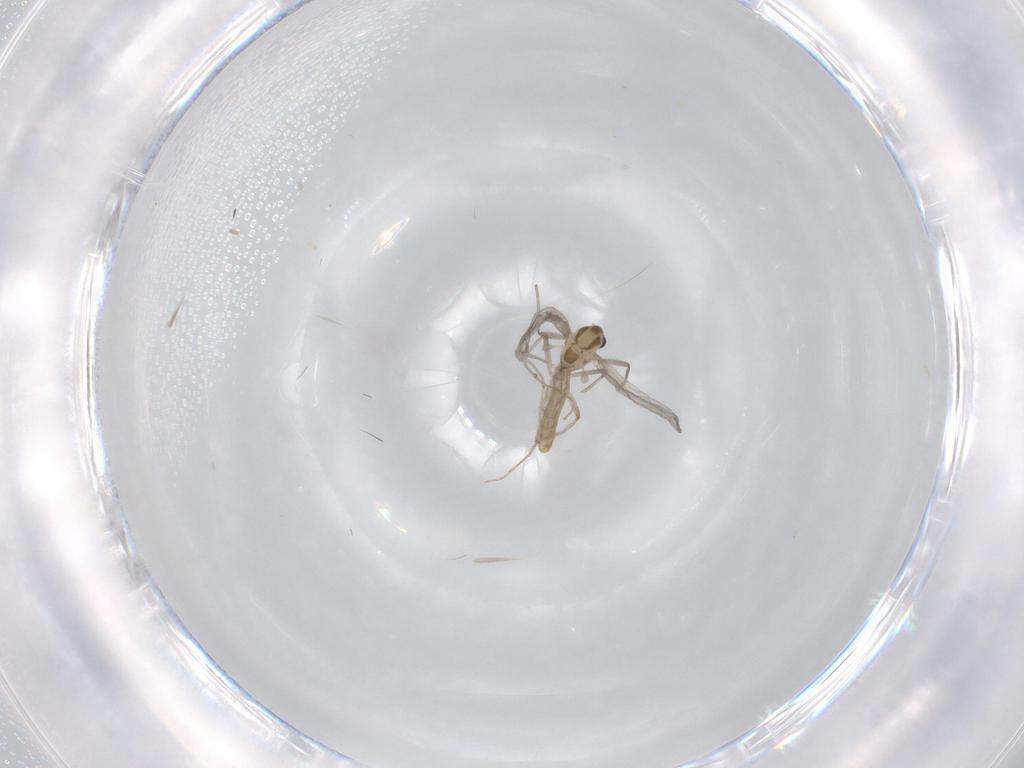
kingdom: Animalia
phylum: Arthropoda
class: Insecta
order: Diptera
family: Chironomidae
